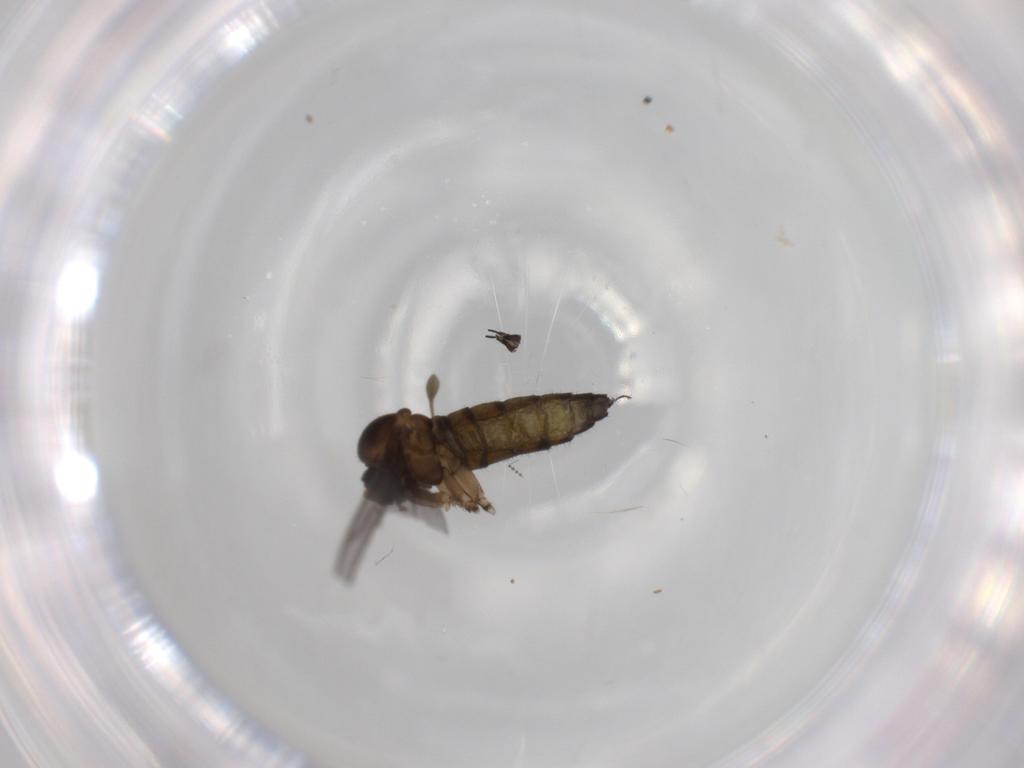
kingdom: Animalia
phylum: Arthropoda
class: Insecta
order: Diptera
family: Sciaridae
